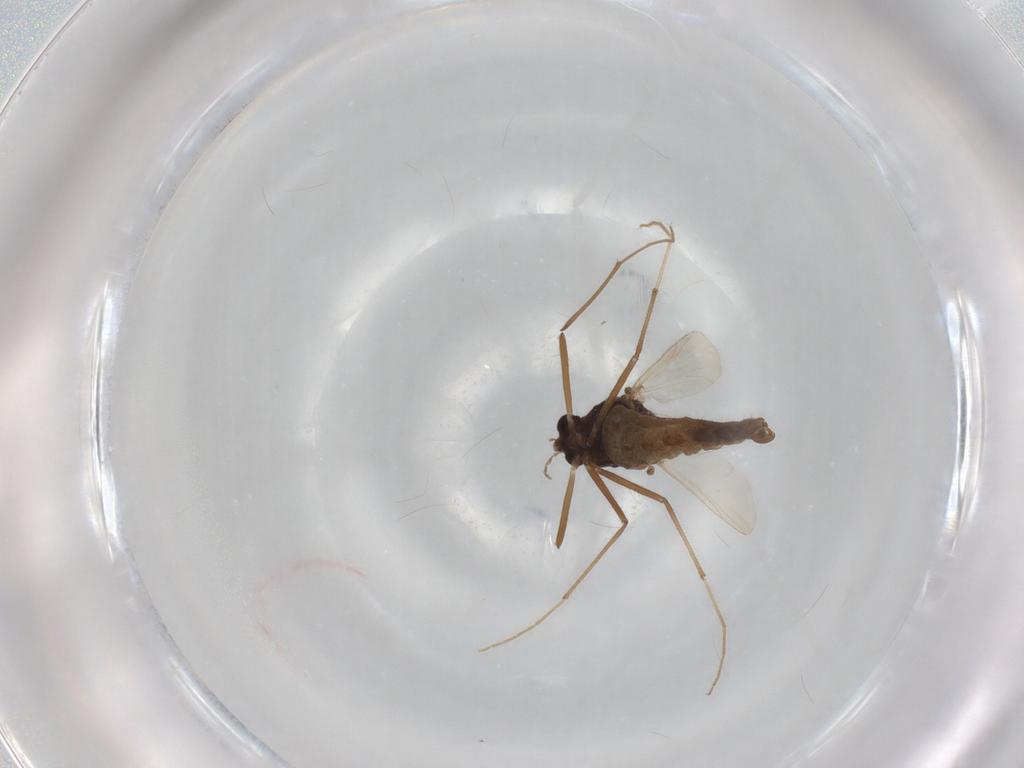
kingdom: Animalia
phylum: Arthropoda
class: Insecta
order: Diptera
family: Chironomidae
